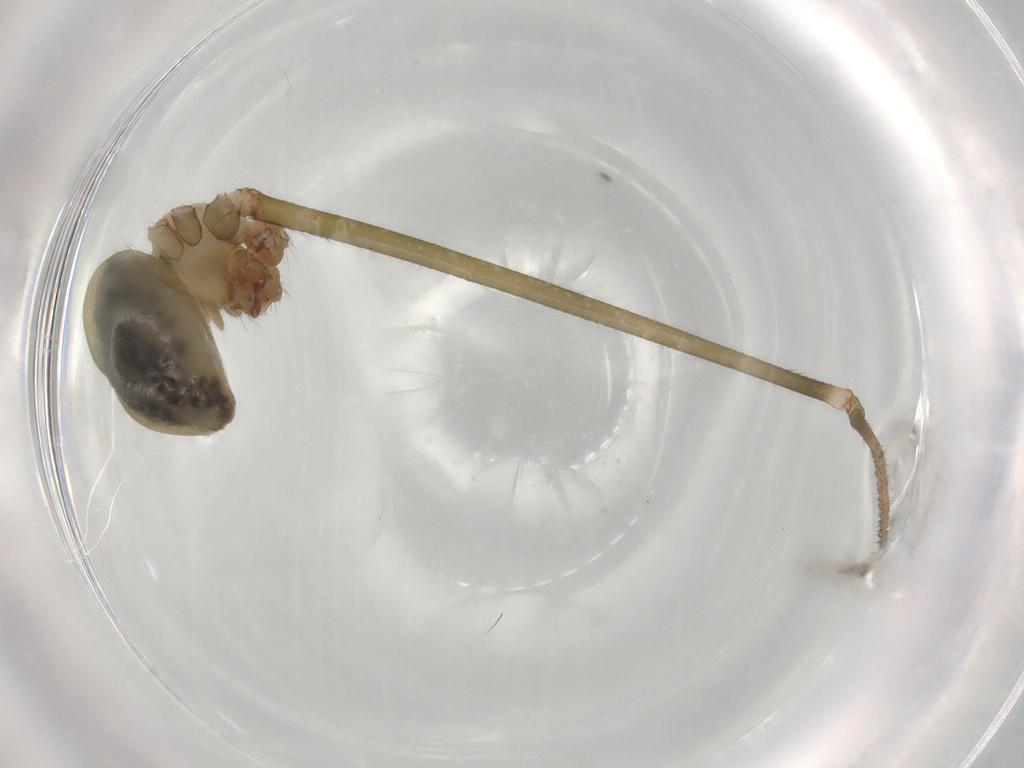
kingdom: Animalia
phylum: Arthropoda
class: Arachnida
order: Araneae
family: Pholcidae
